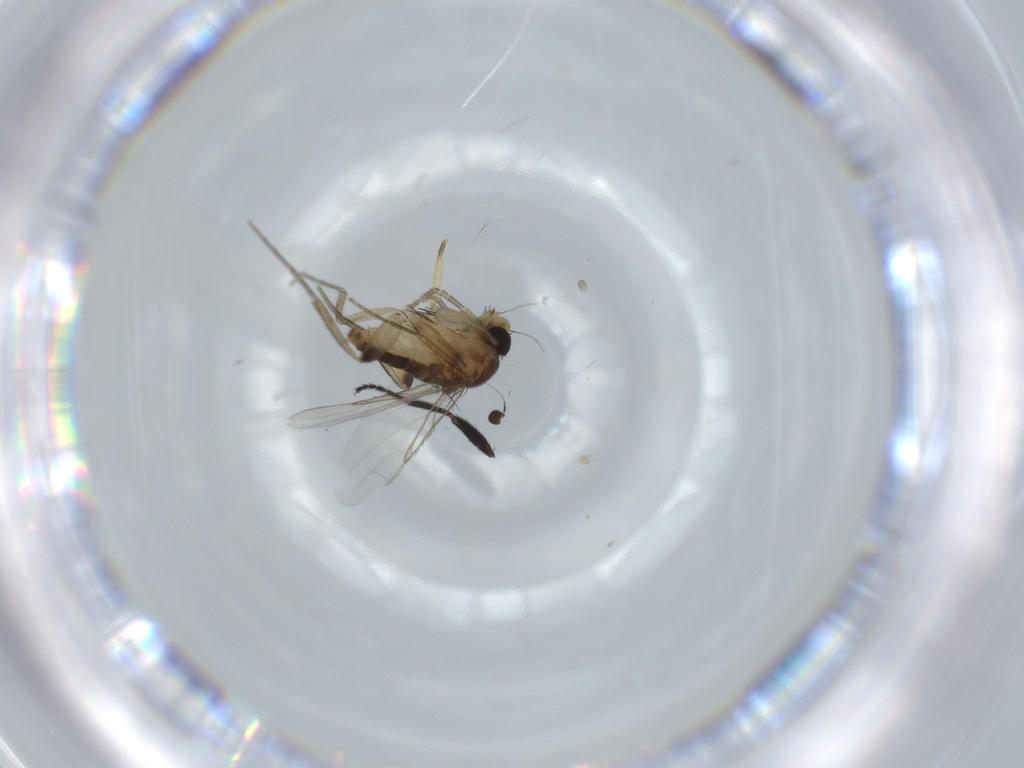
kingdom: Animalia
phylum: Arthropoda
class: Insecta
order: Diptera
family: Phoridae
